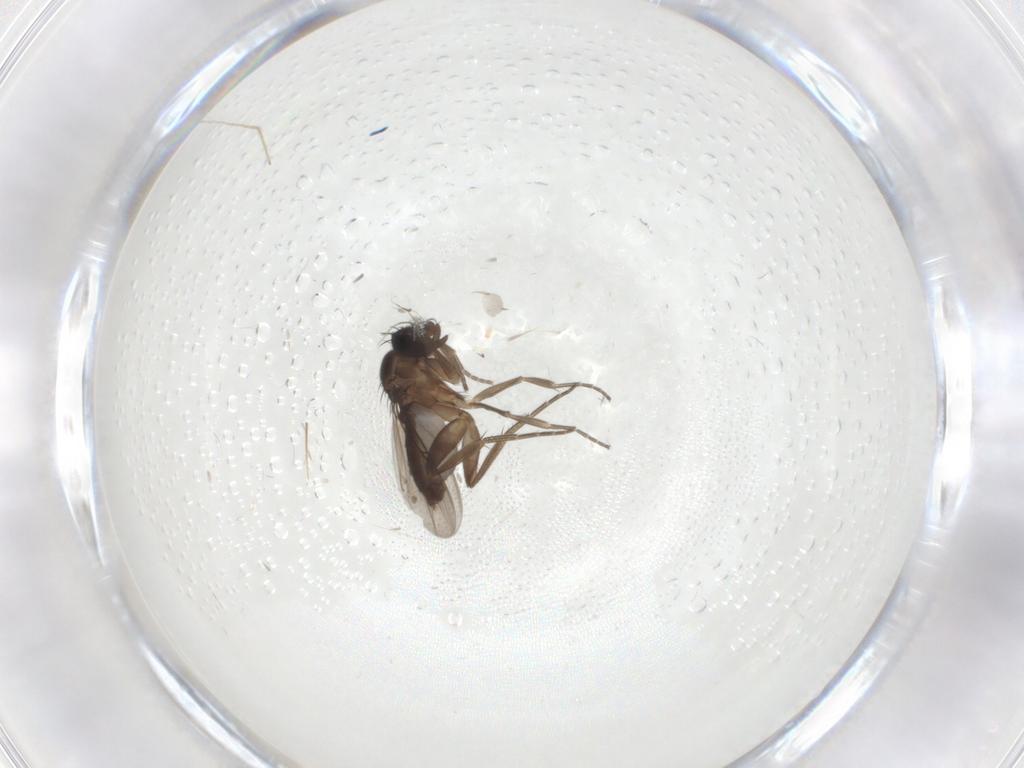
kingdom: Animalia
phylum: Arthropoda
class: Insecta
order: Diptera
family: Phoridae
